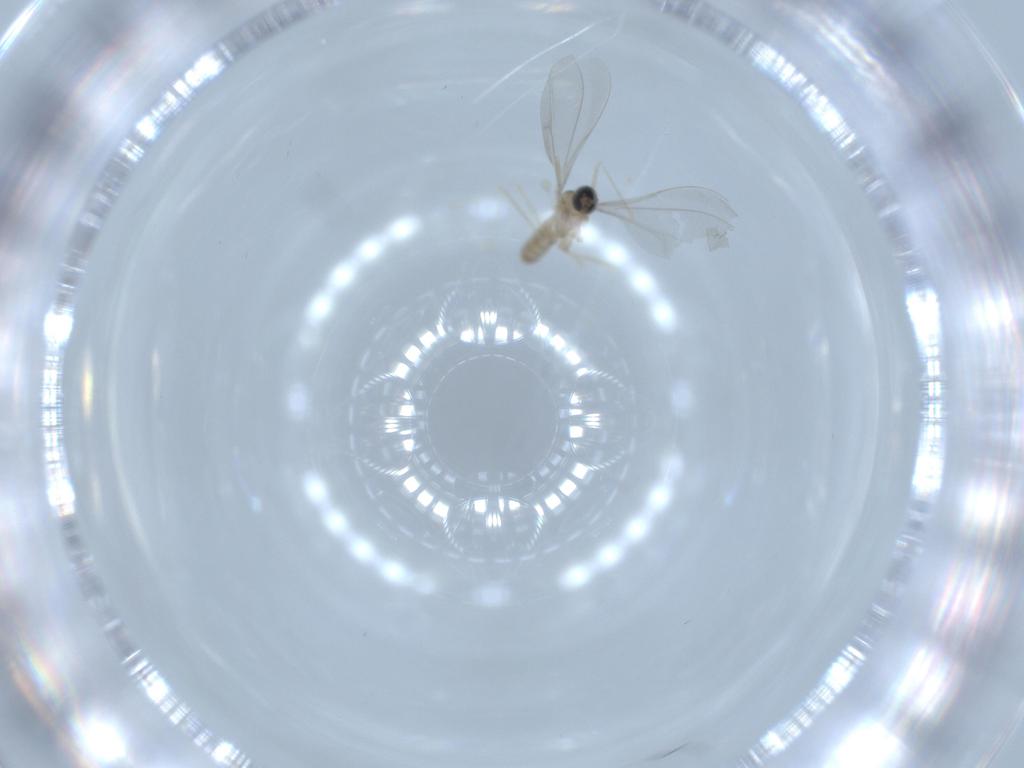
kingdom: Animalia
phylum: Arthropoda
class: Insecta
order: Diptera
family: Cecidomyiidae
